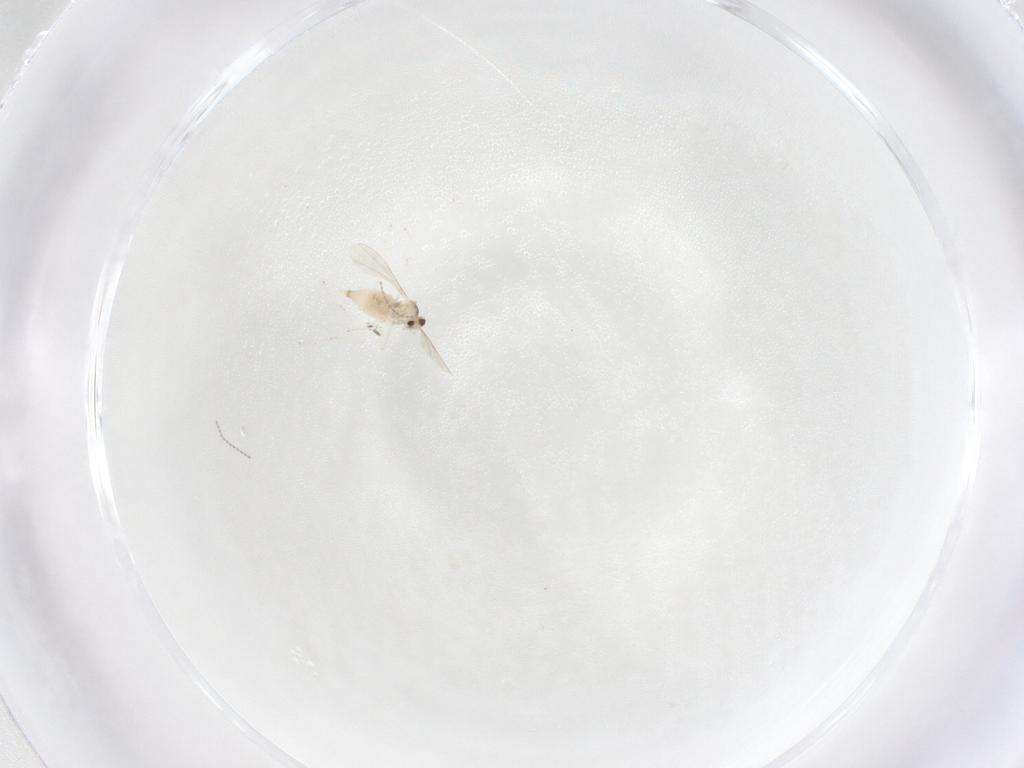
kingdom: Animalia
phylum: Arthropoda
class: Insecta
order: Diptera
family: Cecidomyiidae
